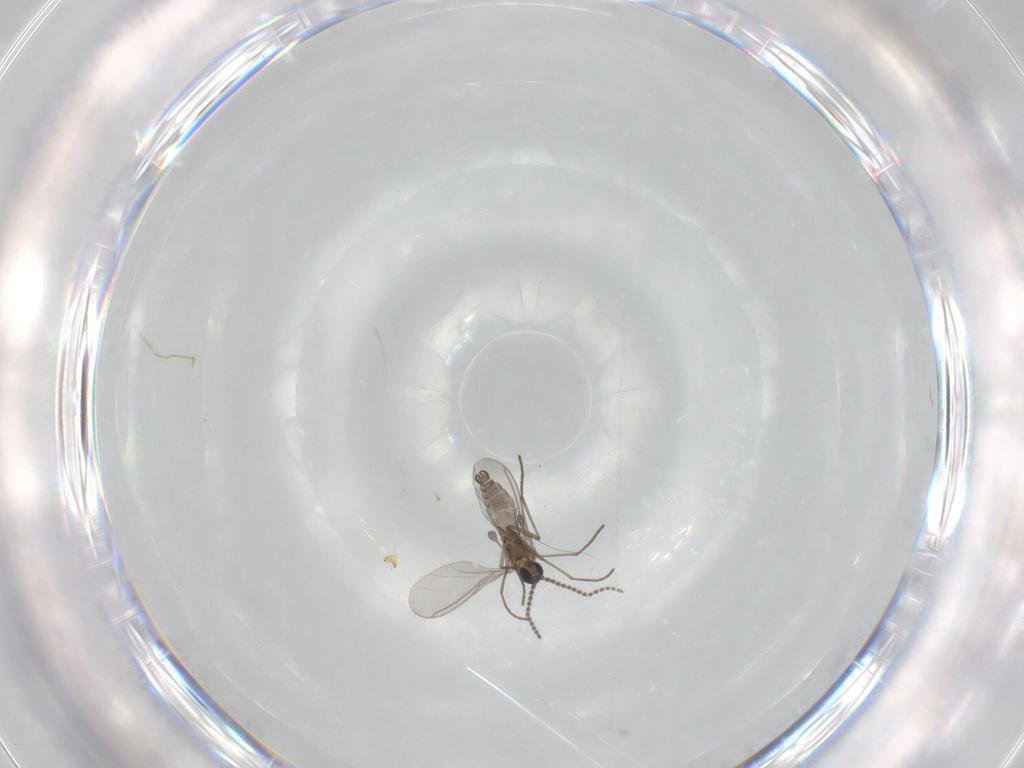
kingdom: Animalia
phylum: Arthropoda
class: Insecta
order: Diptera
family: Sciaridae
